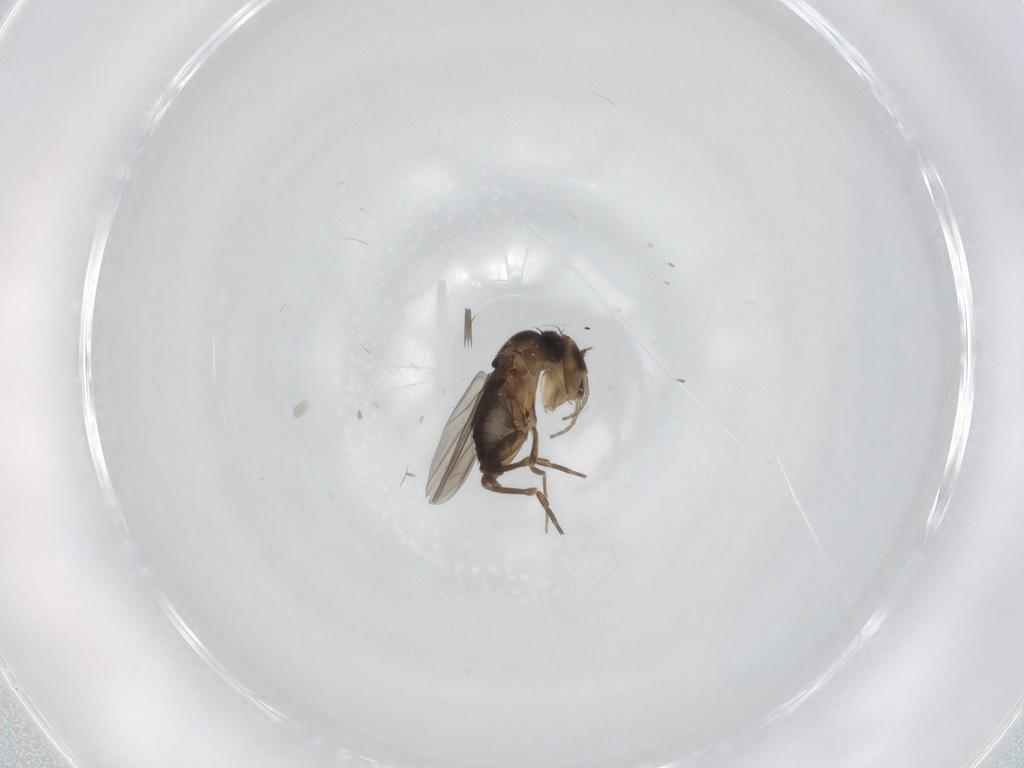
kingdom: Animalia
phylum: Arthropoda
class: Insecta
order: Diptera
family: Phoridae
